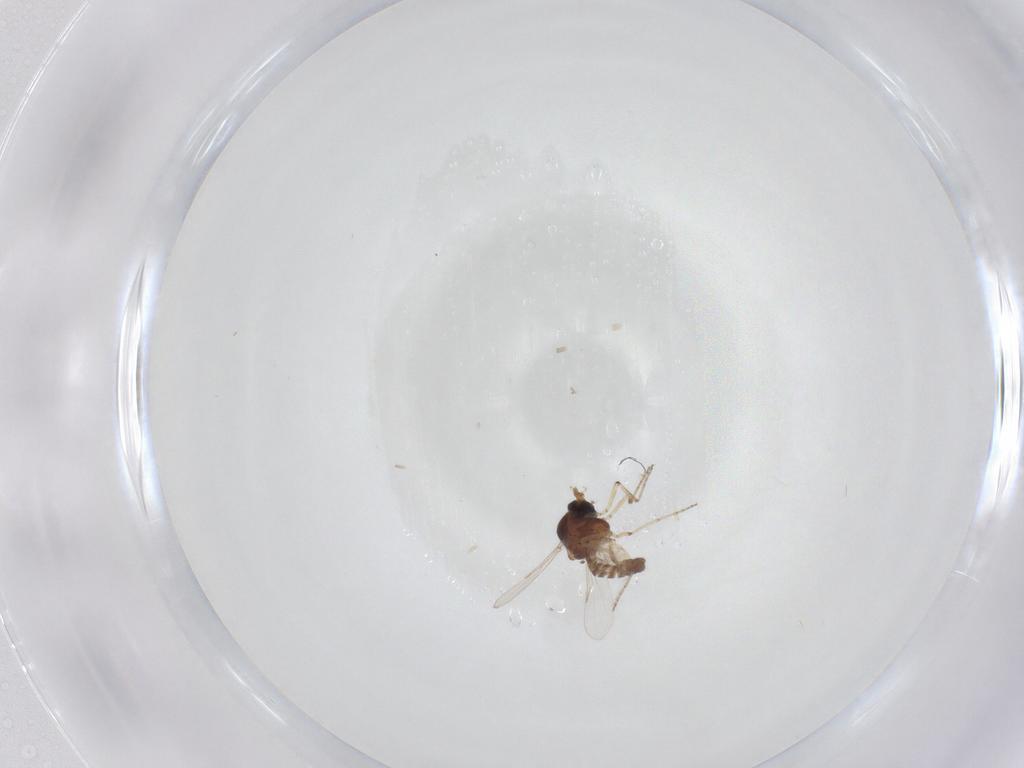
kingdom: Animalia
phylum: Arthropoda
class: Insecta
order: Diptera
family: Ceratopogonidae
